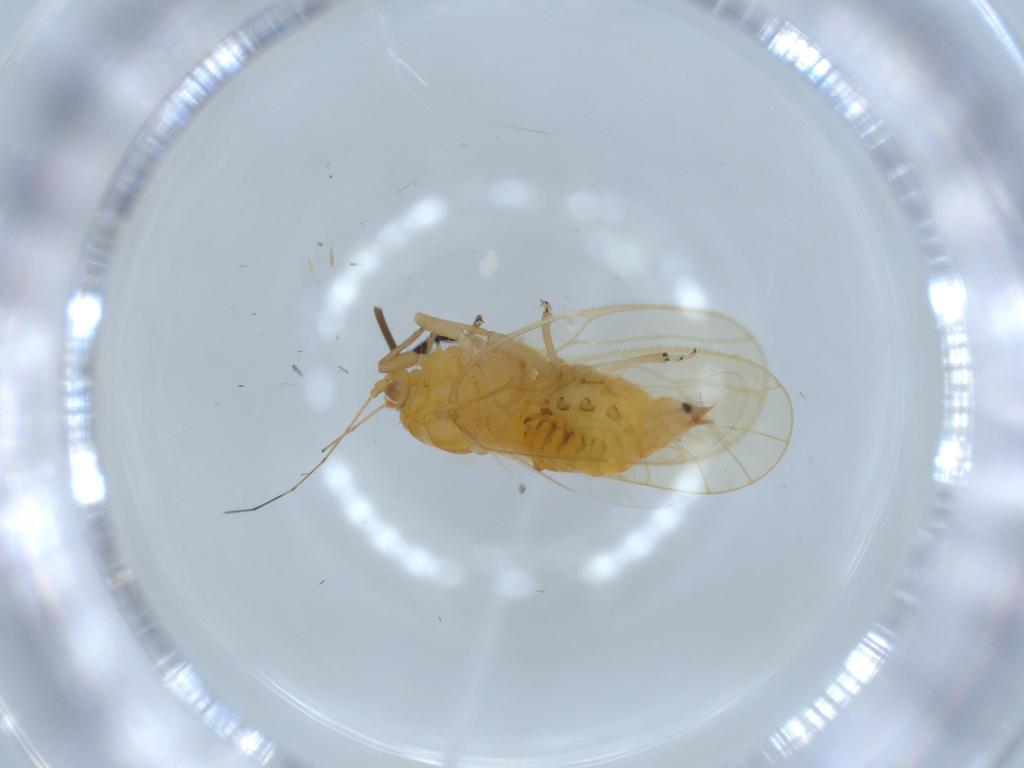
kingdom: Animalia
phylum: Arthropoda
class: Insecta
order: Hemiptera
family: Psyllidae
